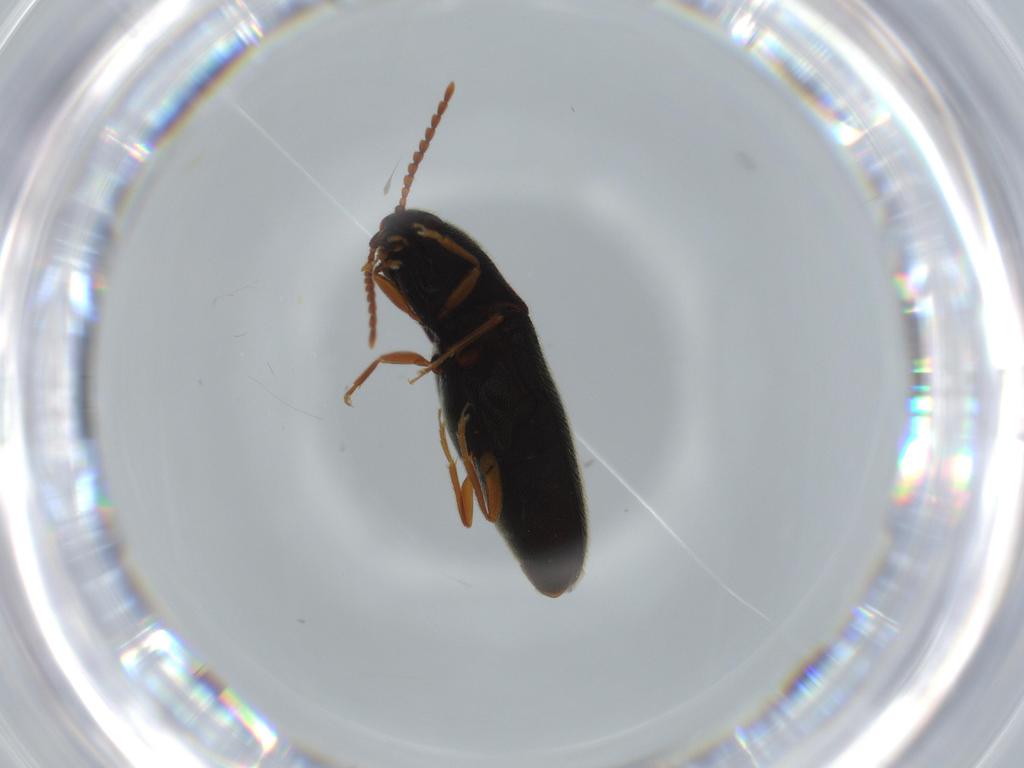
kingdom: Animalia
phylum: Arthropoda
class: Insecta
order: Coleoptera
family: Elateridae
